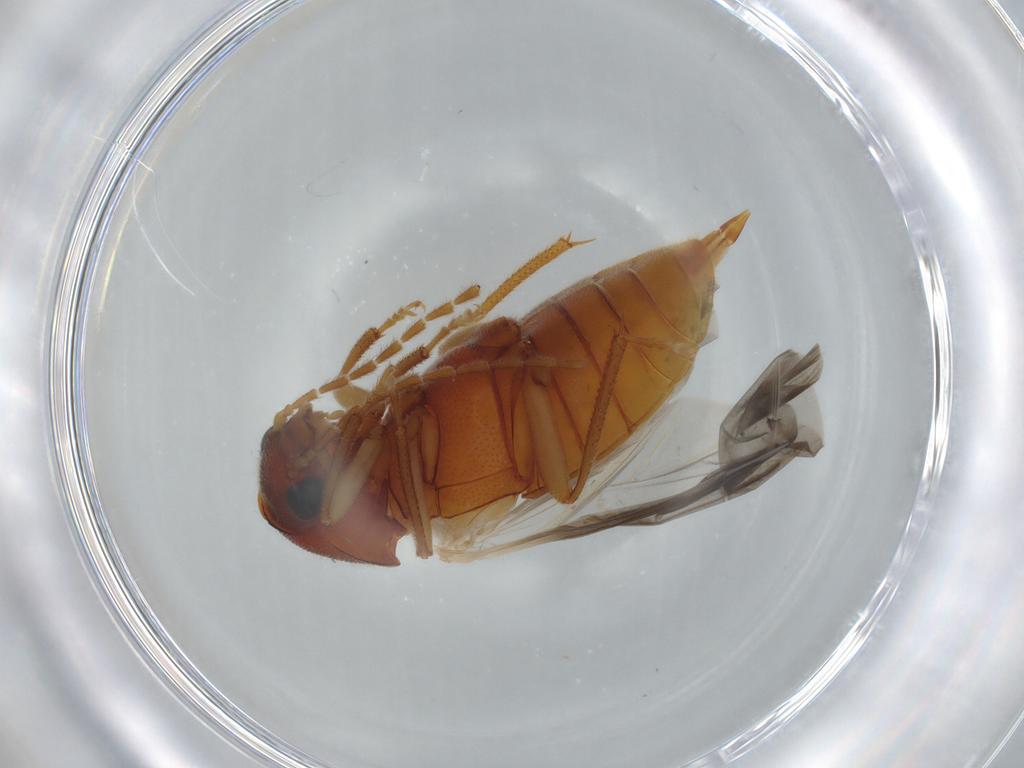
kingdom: Animalia
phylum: Arthropoda
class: Insecta
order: Coleoptera
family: Ptilodactylidae
